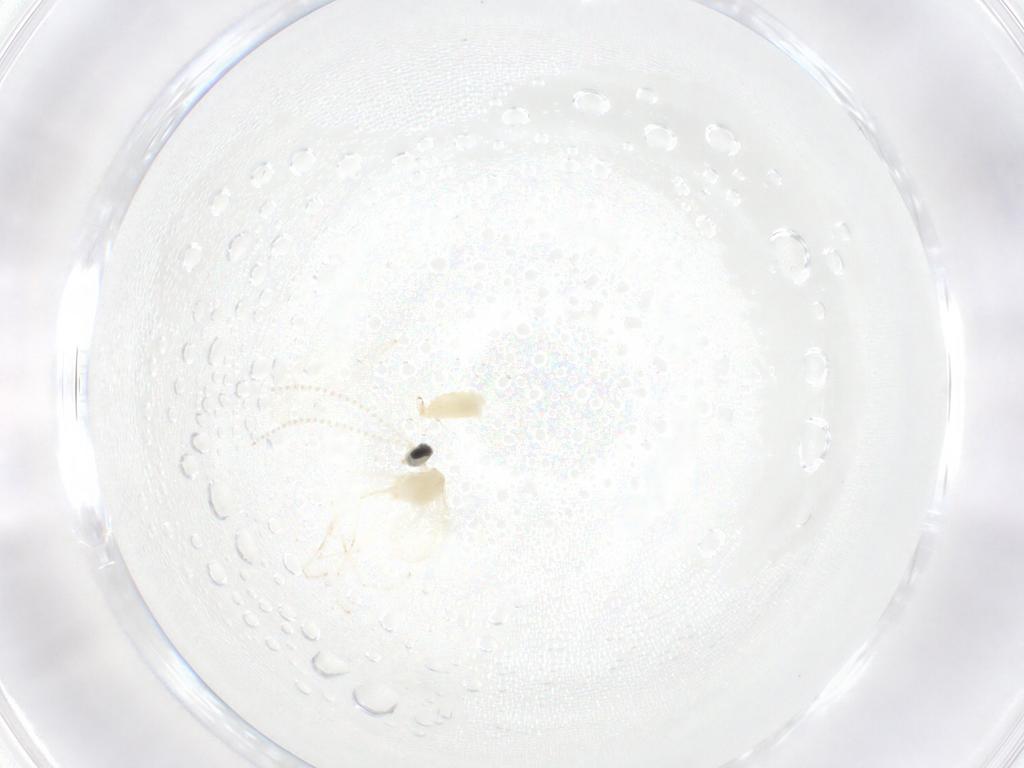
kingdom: Animalia
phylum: Arthropoda
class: Insecta
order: Diptera
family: Cecidomyiidae
